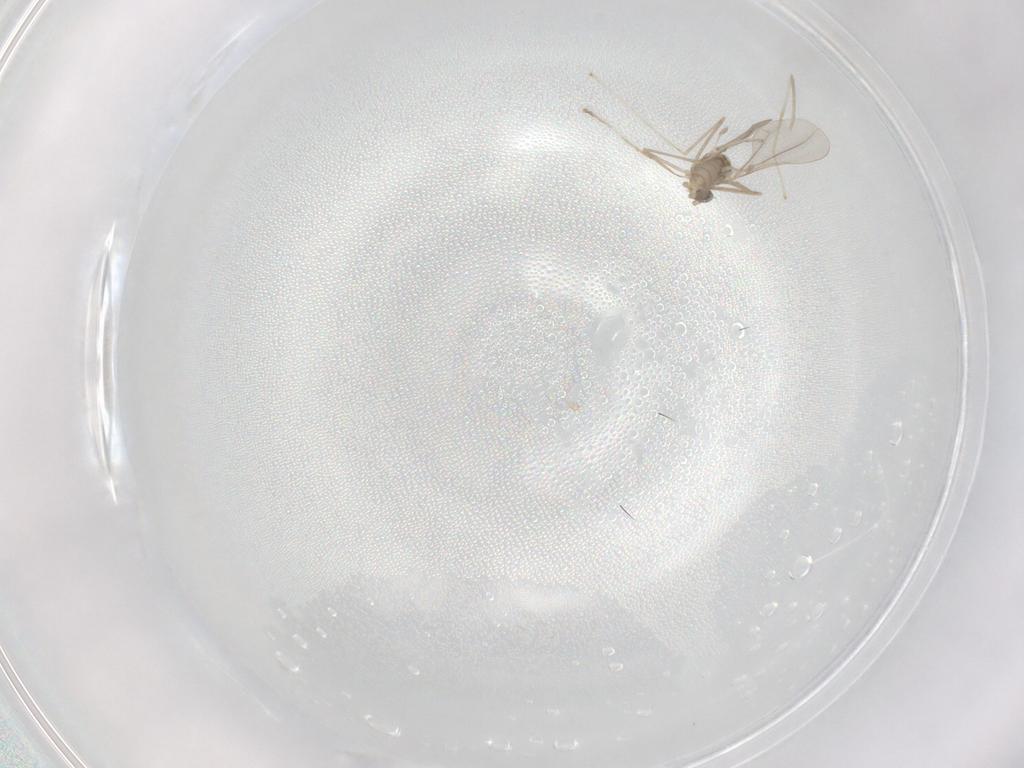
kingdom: Animalia
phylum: Arthropoda
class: Insecta
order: Diptera
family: Cecidomyiidae
